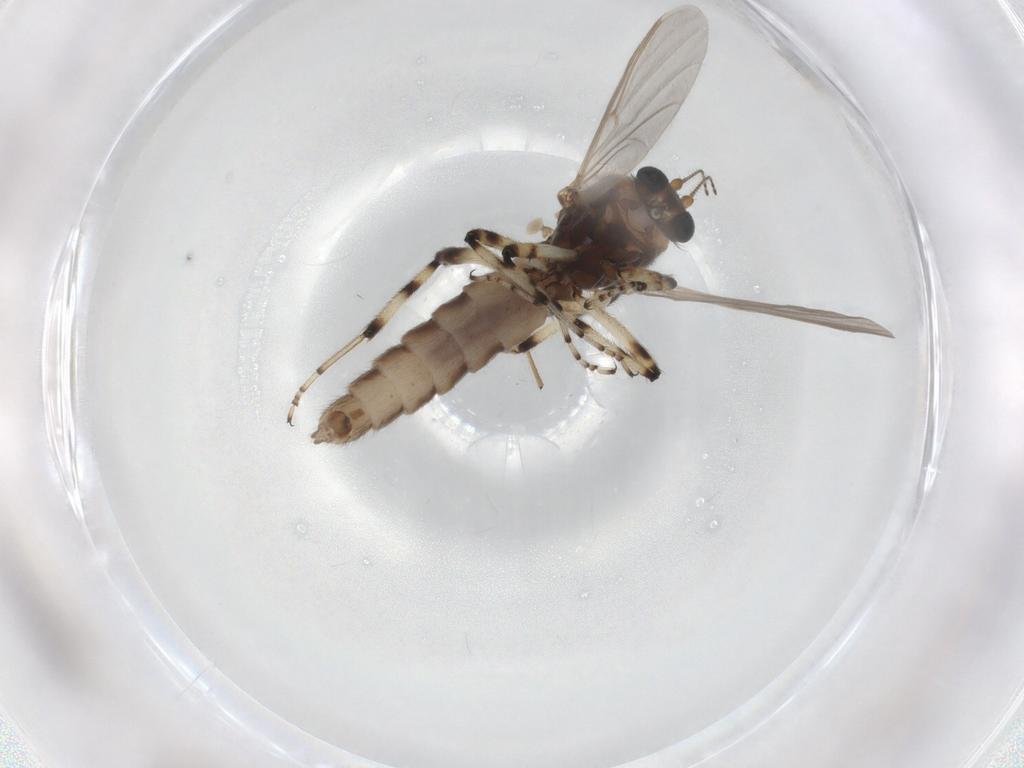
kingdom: Animalia
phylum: Arthropoda
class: Insecta
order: Diptera
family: Ceratopogonidae
